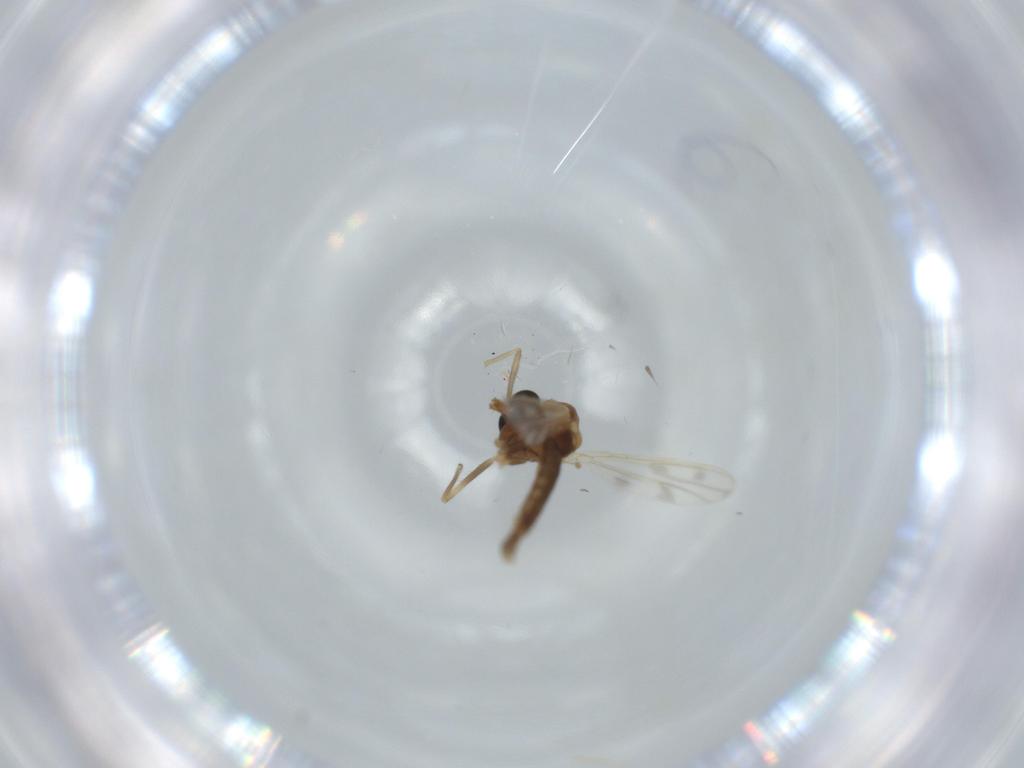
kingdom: Animalia
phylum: Arthropoda
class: Insecta
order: Diptera
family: Chironomidae
